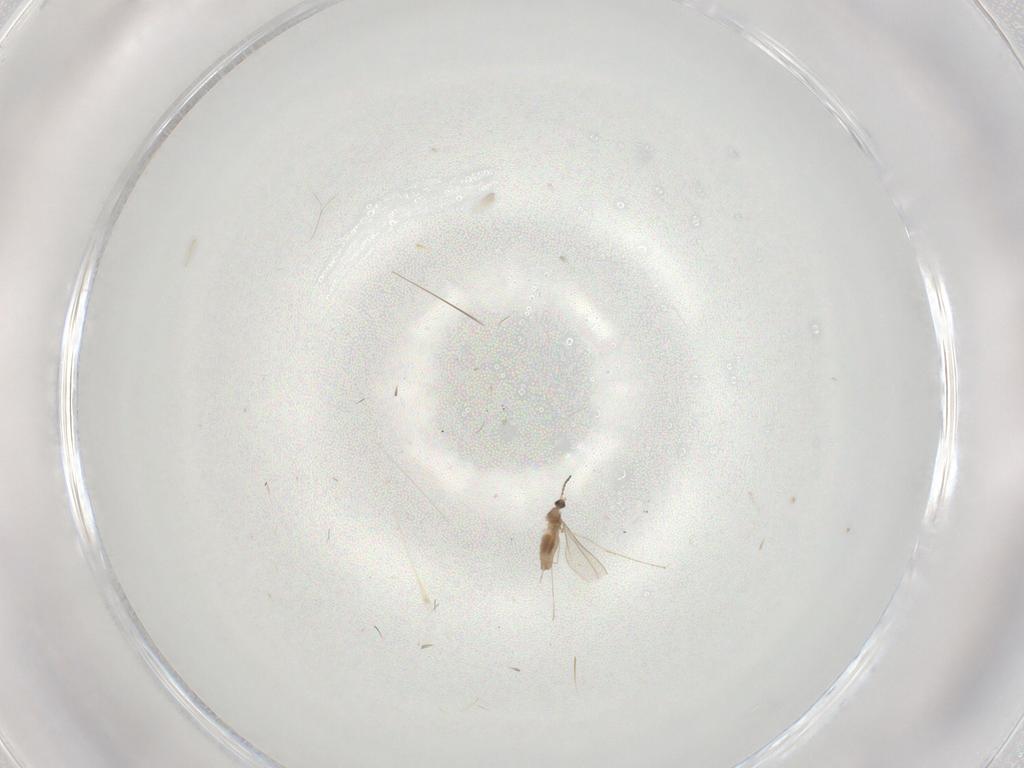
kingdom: Animalia
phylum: Arthropoda
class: Insecta
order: Diptera
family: Cecidomyiidae
